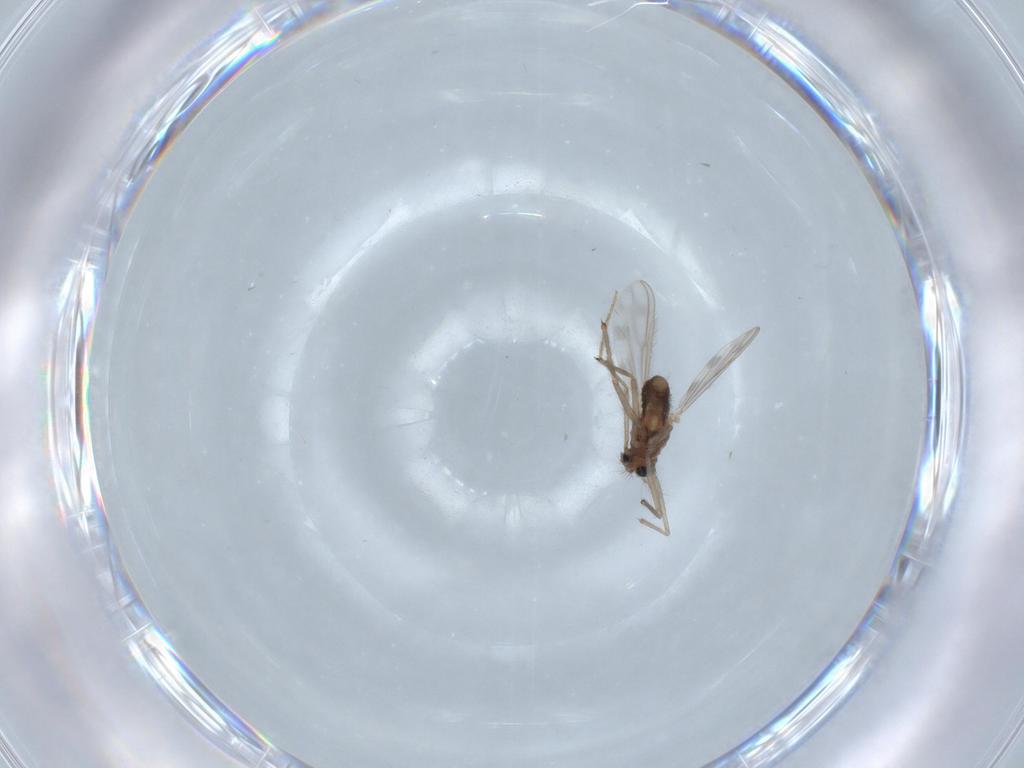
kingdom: Animalia
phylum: Arthropoda
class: Insecta
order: Diptera
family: Chironomidae
